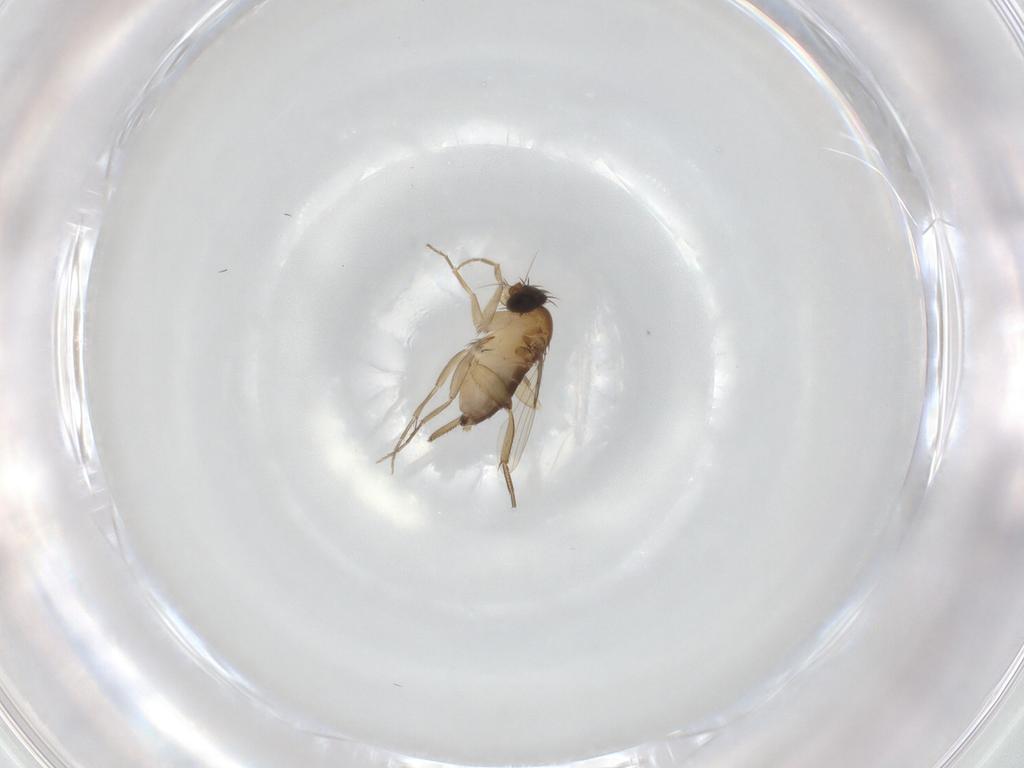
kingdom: Animalia
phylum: Arthropoda
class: Insecta
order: Diptera
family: Phoridae
